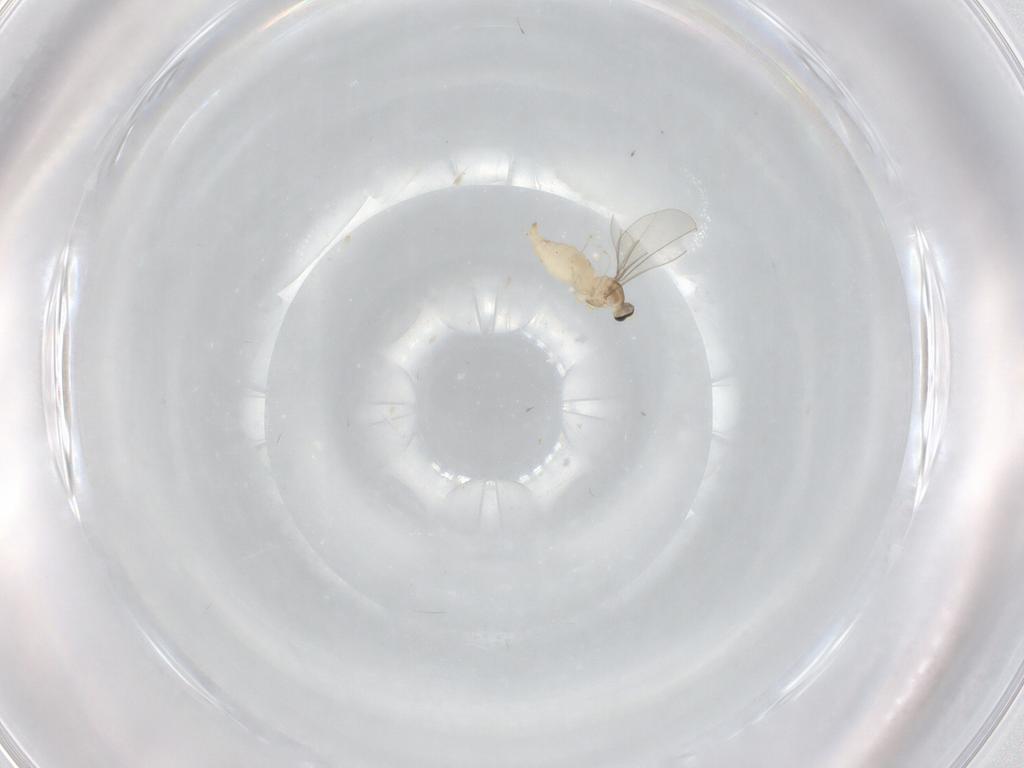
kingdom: Animalia
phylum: Arthropoda
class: Insecta
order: Diptera
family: Cecidomyiidae
